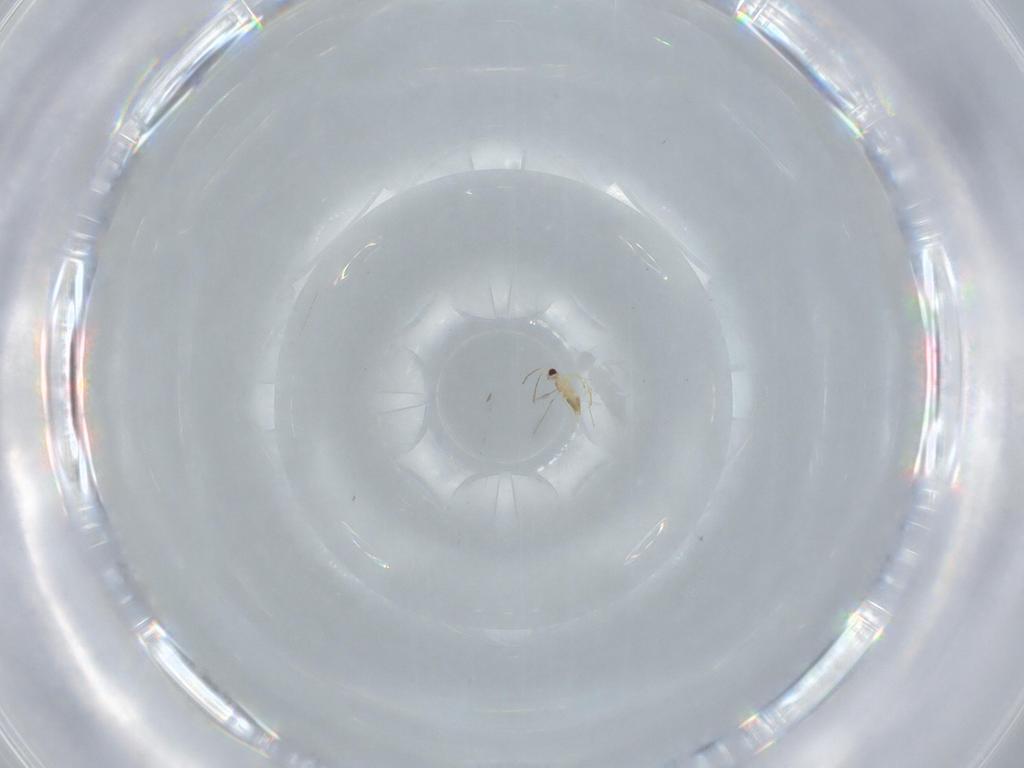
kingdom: Animalia
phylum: Arthropoda
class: Insecta
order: Hymenoptera
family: Mymaridae
